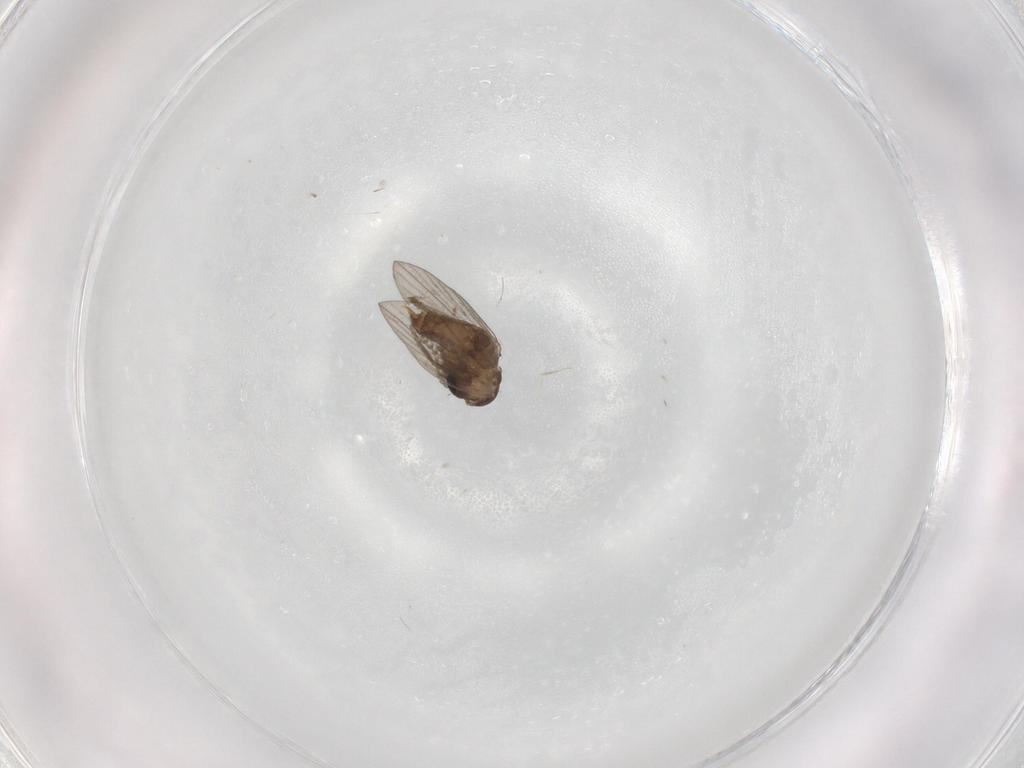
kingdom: Animalia
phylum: Arthropoda
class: Insecta
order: Diptera
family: Psychodidae
